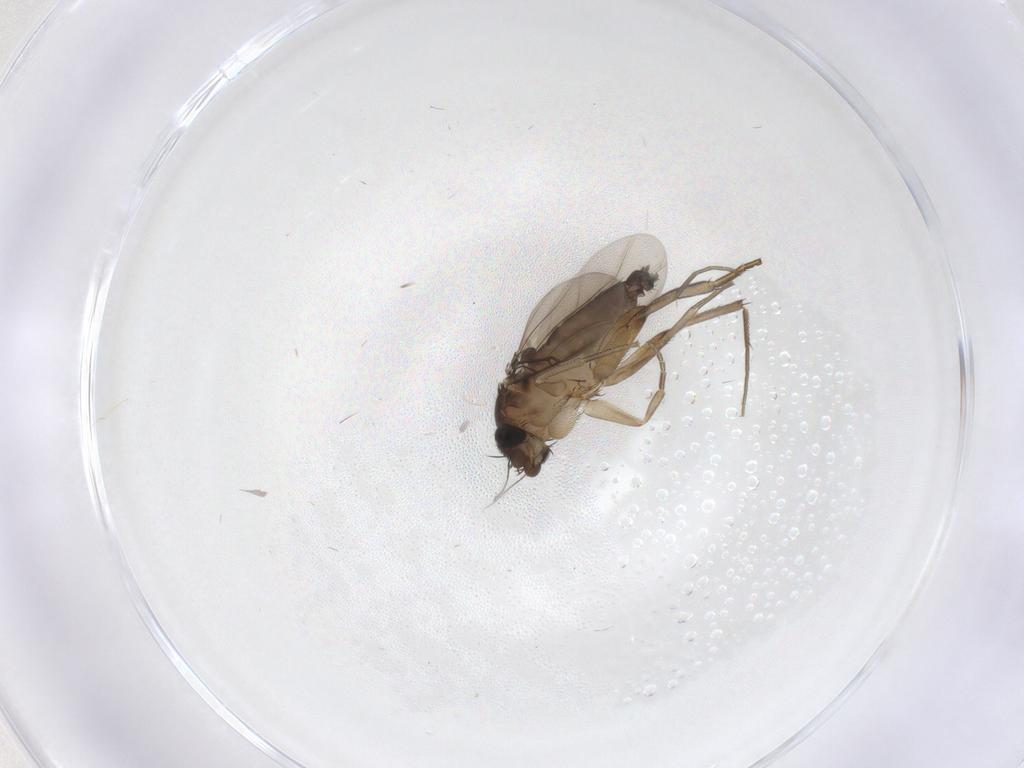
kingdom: Animalia
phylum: Arthropoda
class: Insecta
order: Diptera
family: Phoridae
